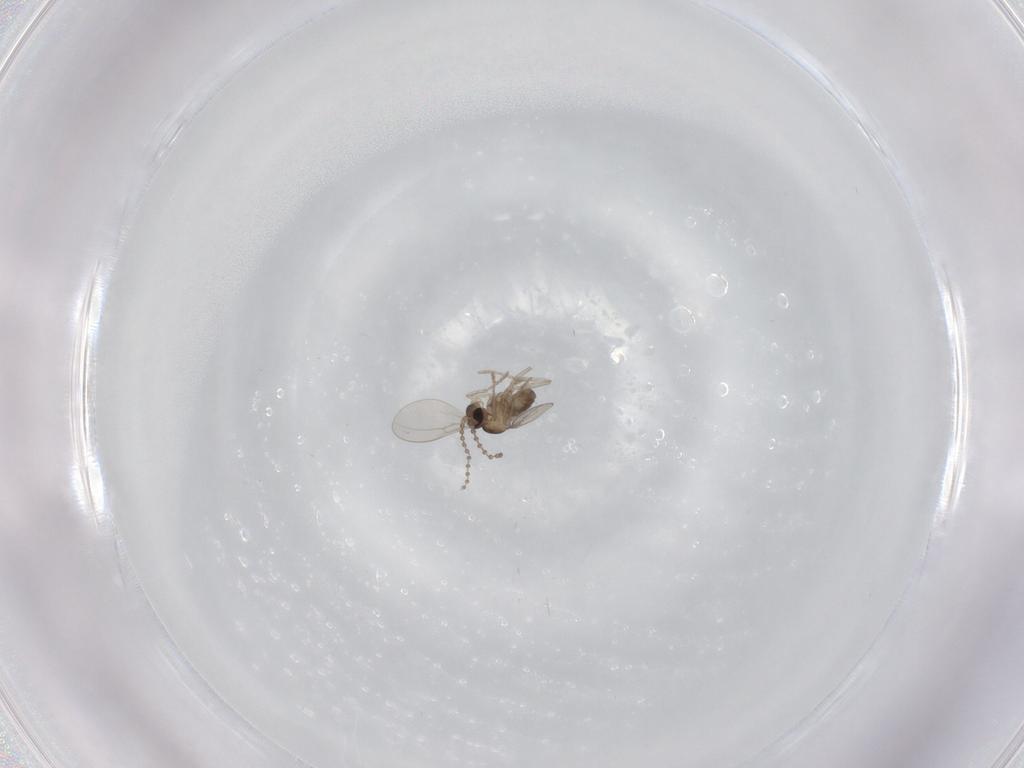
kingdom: Animalia
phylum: Arthropoda
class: Insecta
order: Diptera
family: Cecidomyiidae
